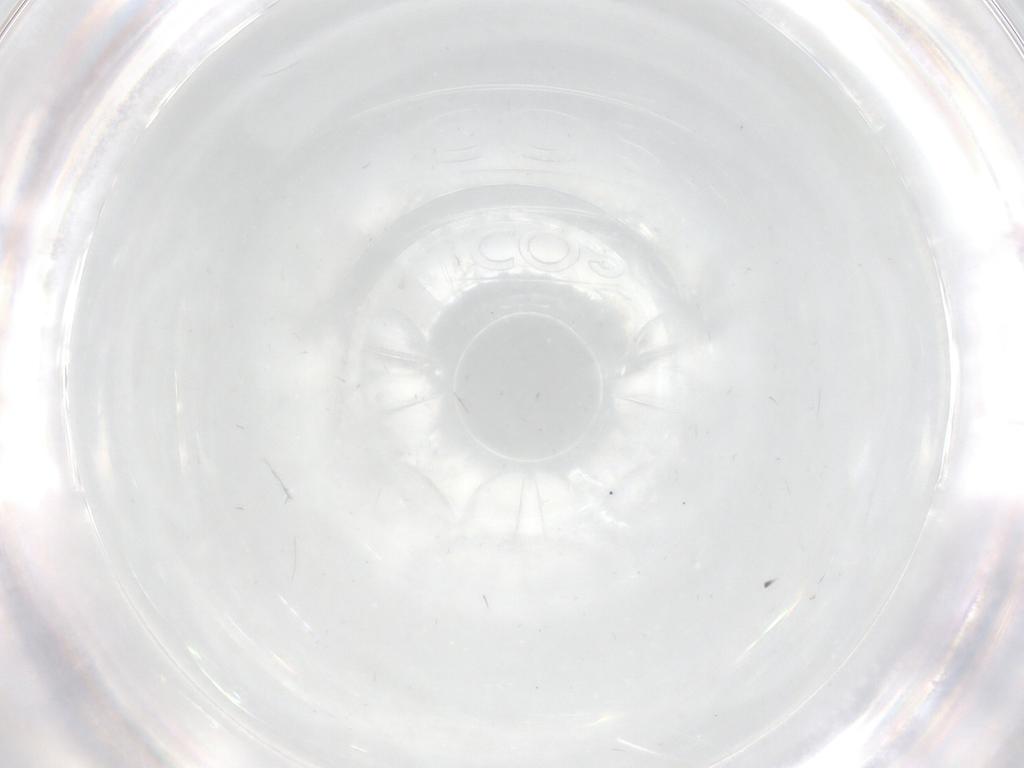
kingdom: Animalia
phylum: Arthropoda
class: Insecta
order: Diptera
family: Psychodidae
